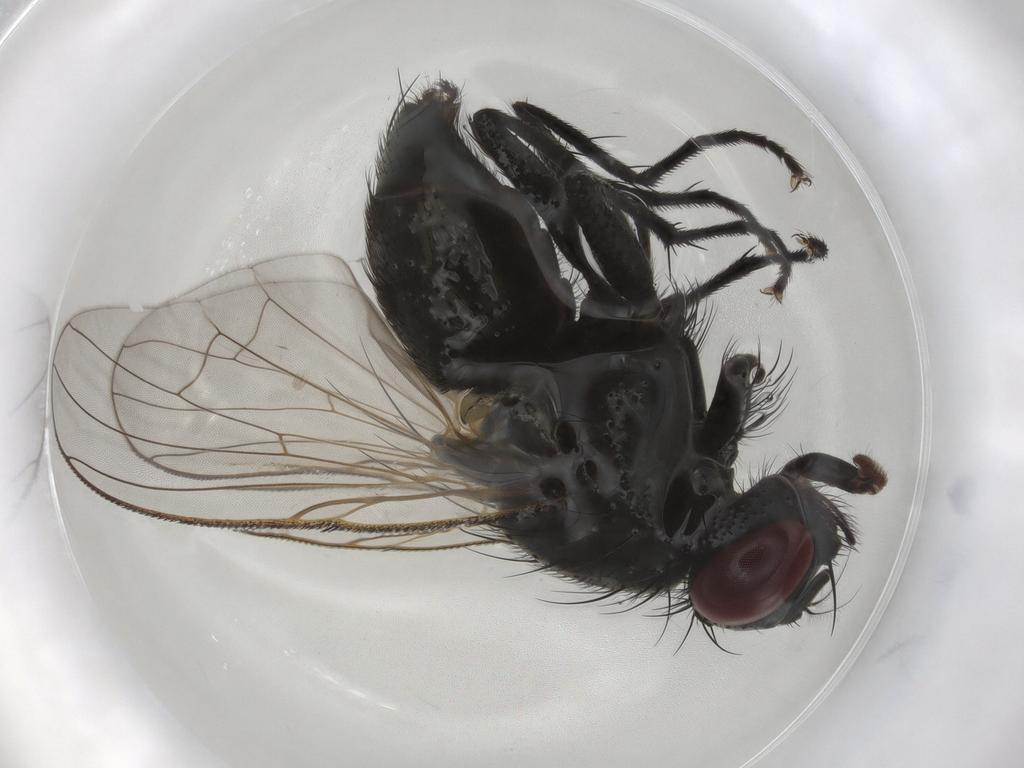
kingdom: Animalia
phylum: Arthropoda
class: Insecta
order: Diptera
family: Muscidae
